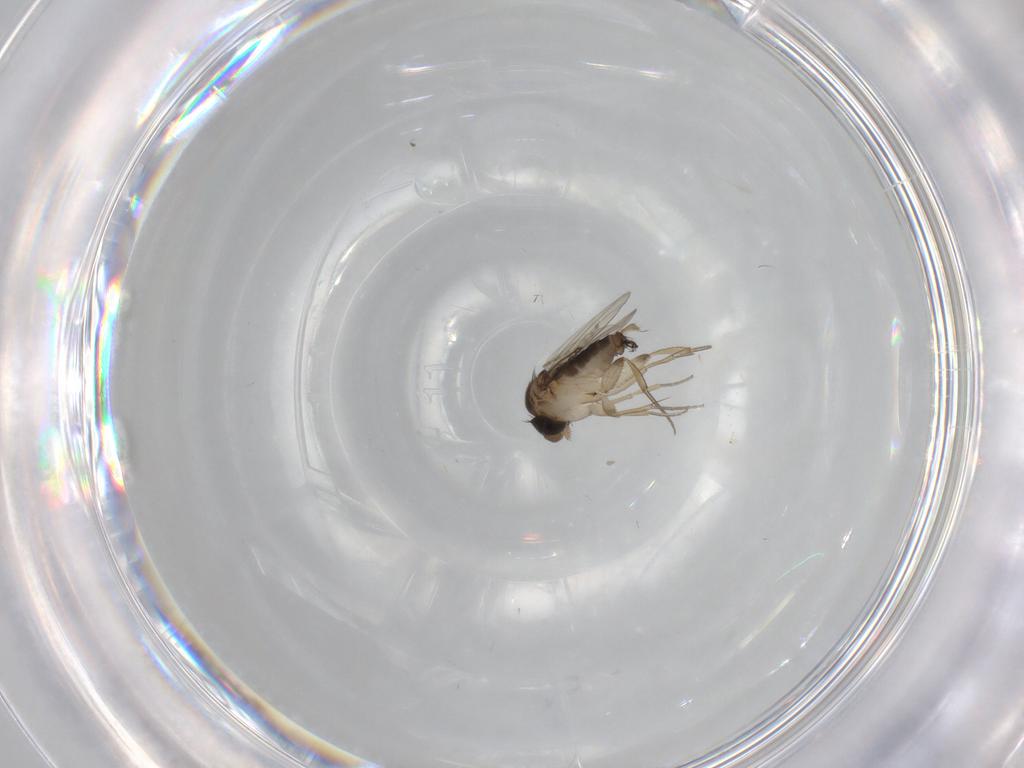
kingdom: Animalia
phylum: Arthropoda
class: Insecta
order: Diptera
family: Cecidomyiidae
